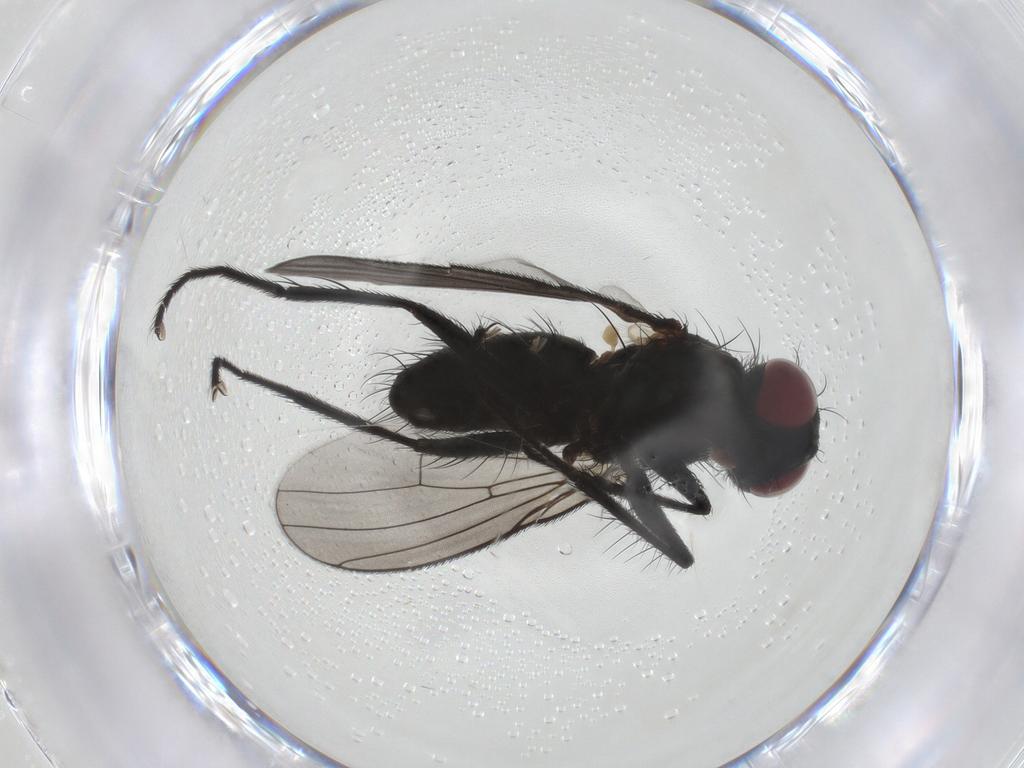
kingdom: Animalia
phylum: Arthropoda
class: Insecta
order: Diptera
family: Muscidae
